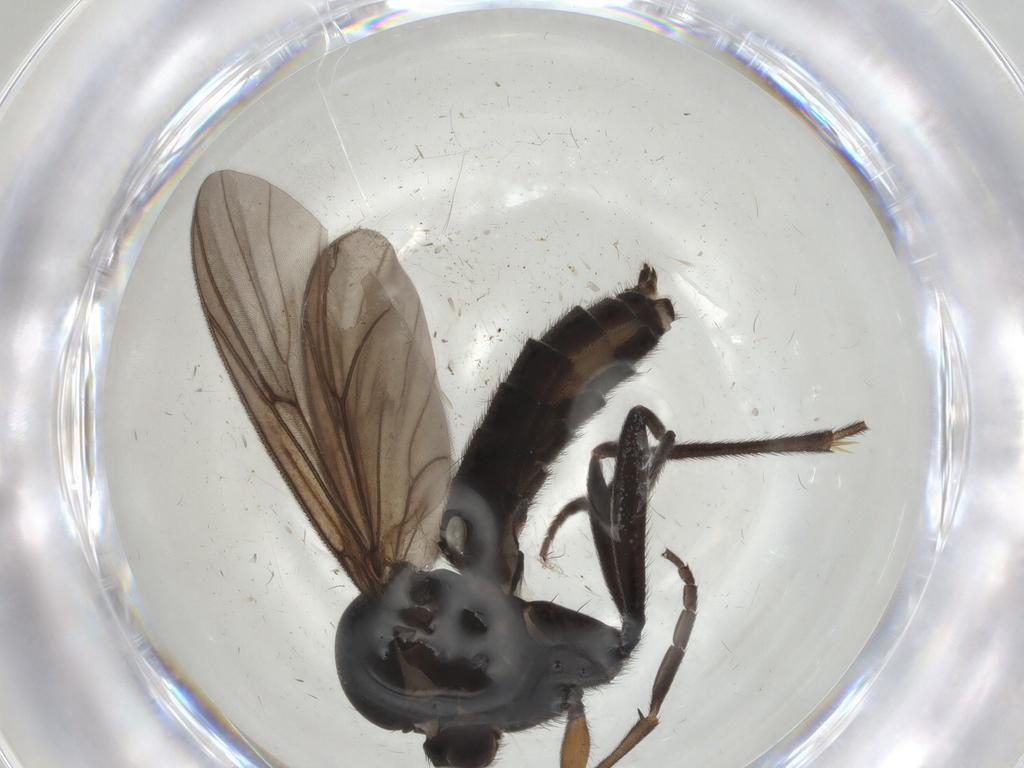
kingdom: Animalia
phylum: Arthropoda
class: Insecta
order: Diptera
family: Mycetophilidae
